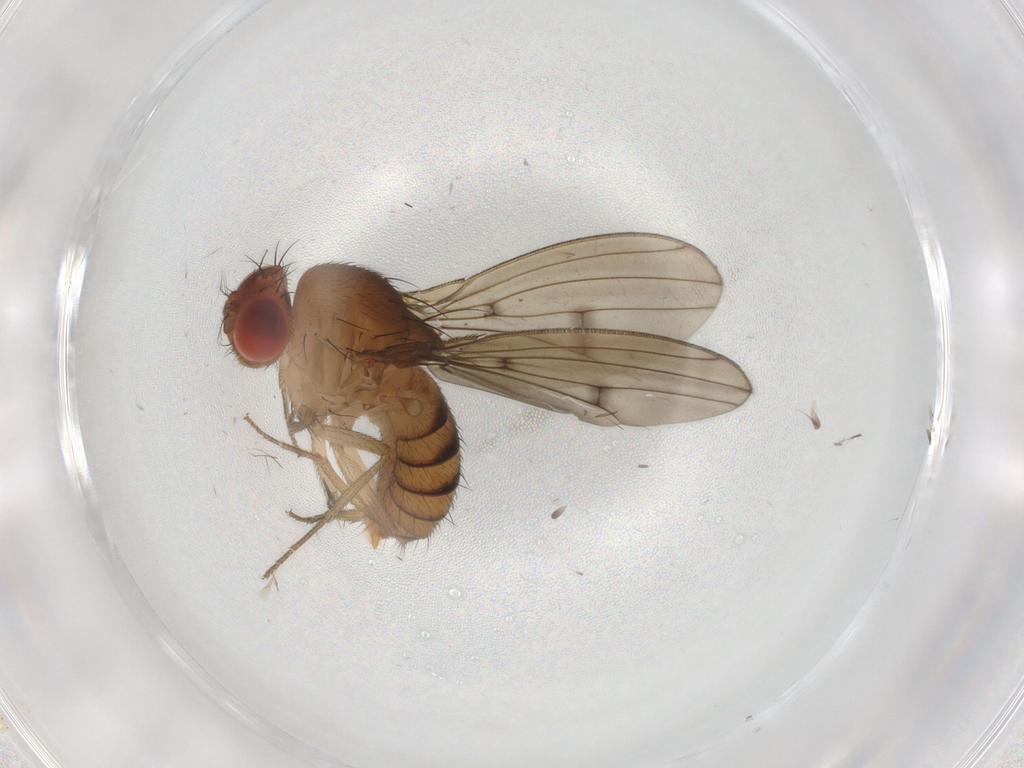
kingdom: Animalia
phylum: Arthropoda
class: Insecta
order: Diptera
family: Drosophilidae
